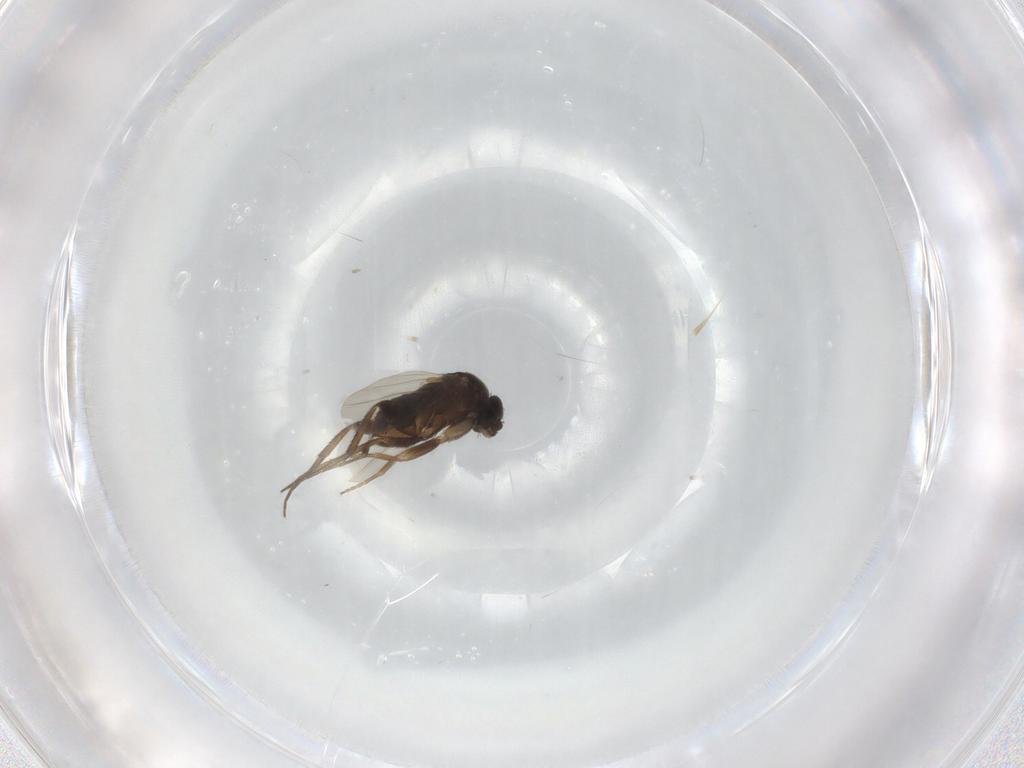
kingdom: Animalia
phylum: Arthropoda
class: Insecta
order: Diptera
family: Phoridae
